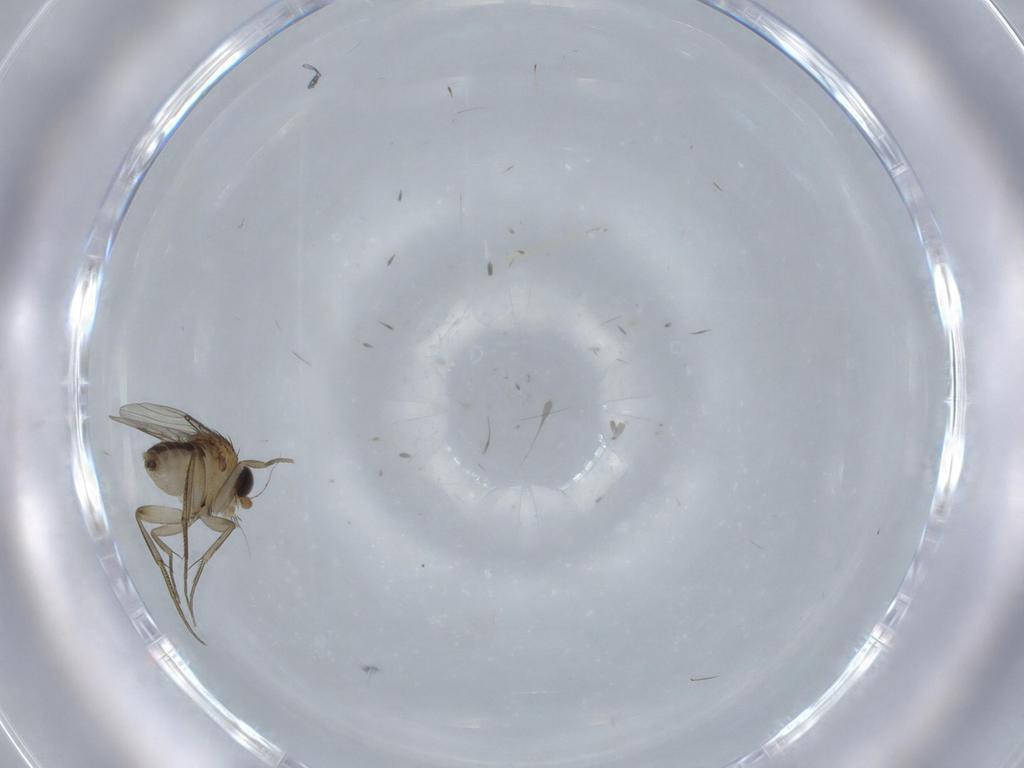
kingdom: Animalia
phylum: Arthropoda
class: Insecta
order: Diptera
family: Phoridae
